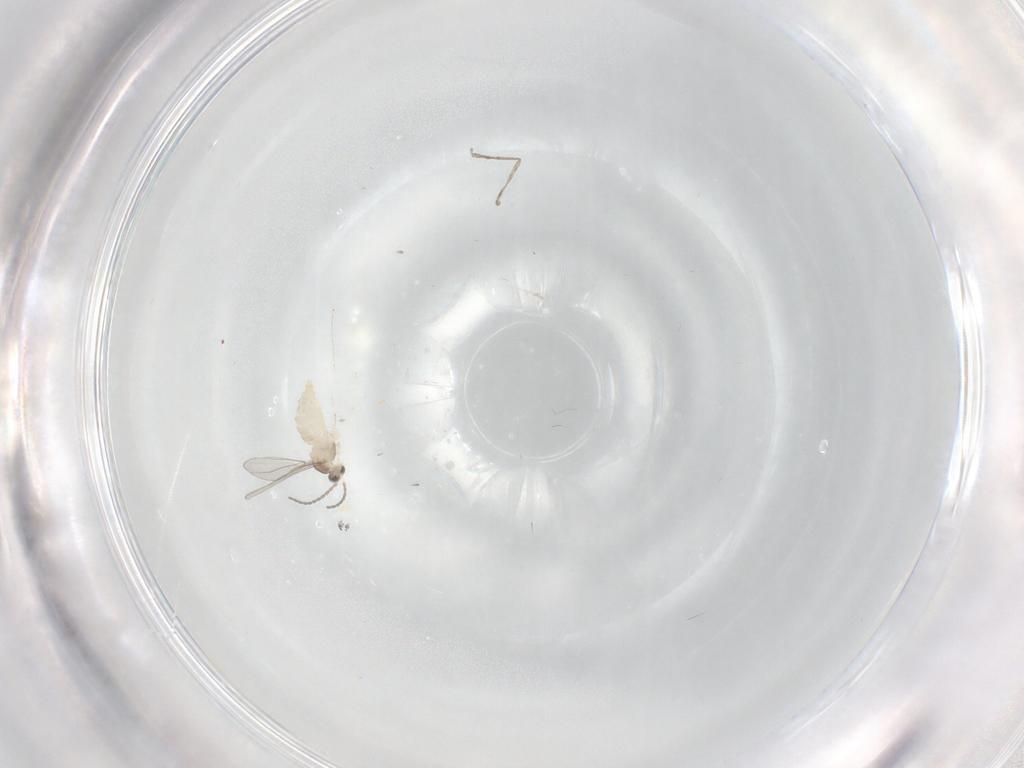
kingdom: Animalia
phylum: Arthropoda
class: Insecta
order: Diptera
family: Cecidomyiidae
